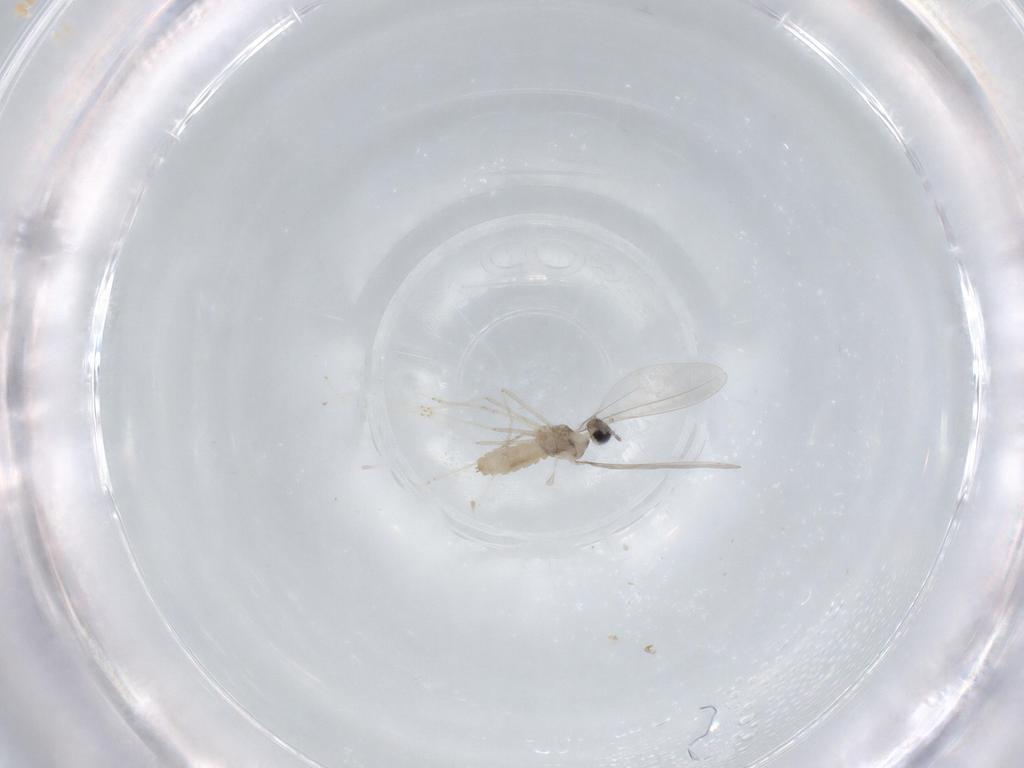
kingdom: Animalia
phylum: Arthropoda
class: Insecta
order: Diptera
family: Cecidomyiidae
